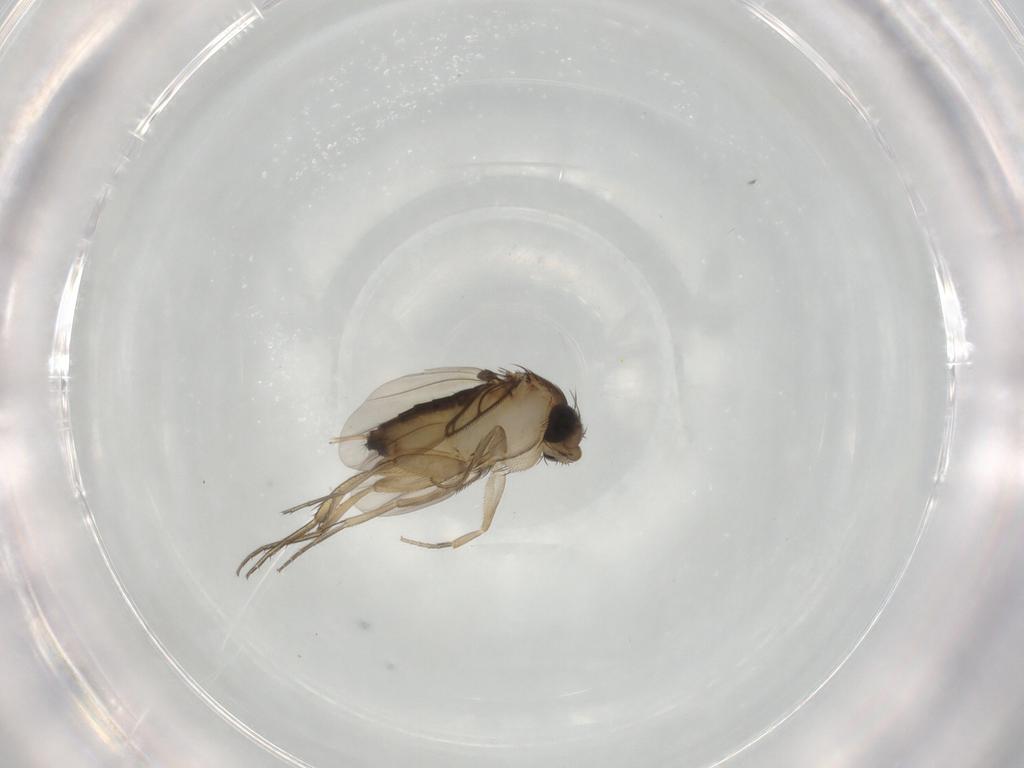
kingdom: Animalia
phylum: Arthropoda
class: Insecta
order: Diptera
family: Phoridae
